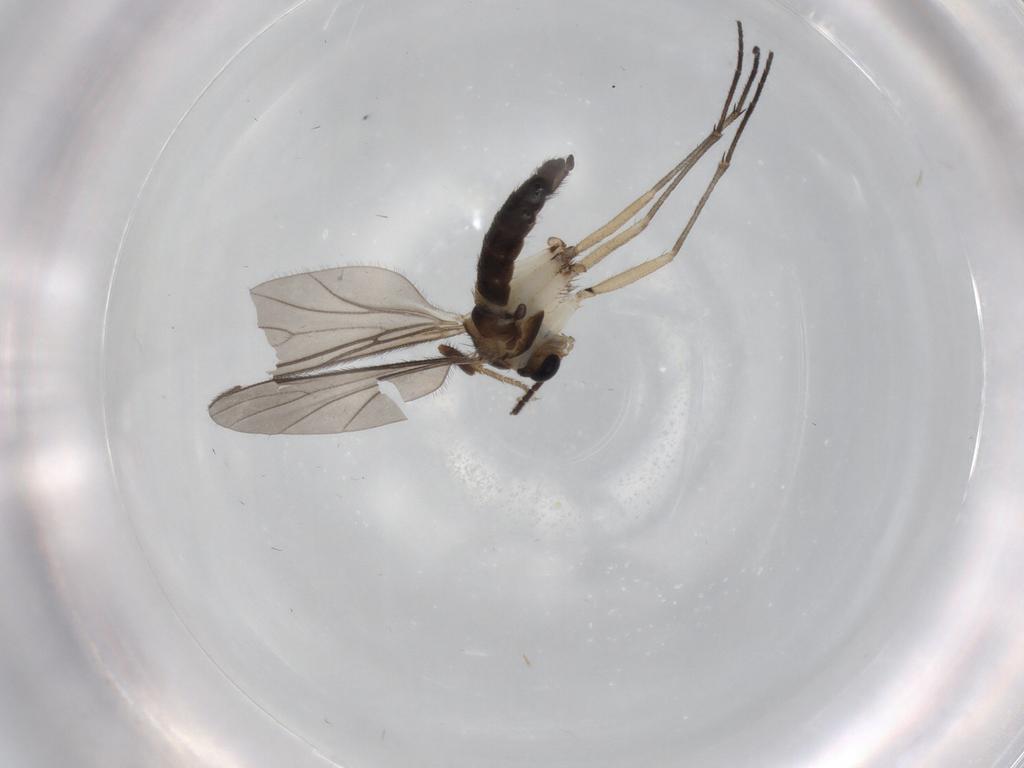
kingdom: Animalia
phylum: Arthropoda
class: Insecta
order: Diptera
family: Sciaridae
